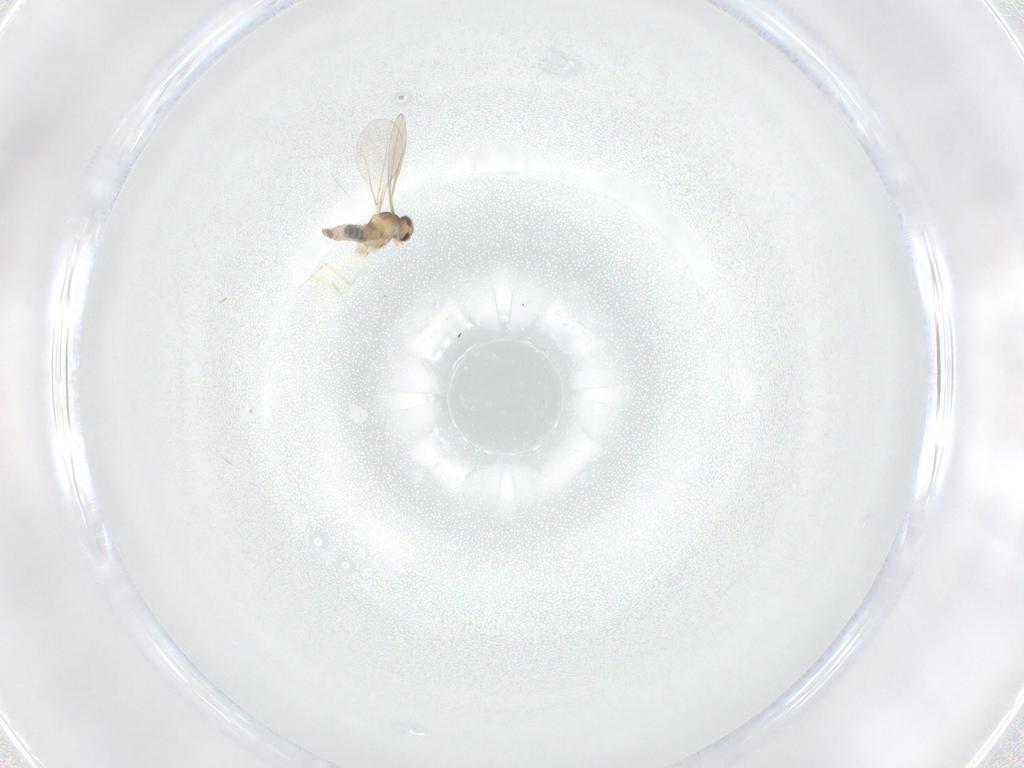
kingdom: Animalia
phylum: Arthropoda
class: Insecta
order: Diptera
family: Cecidomyiidae
